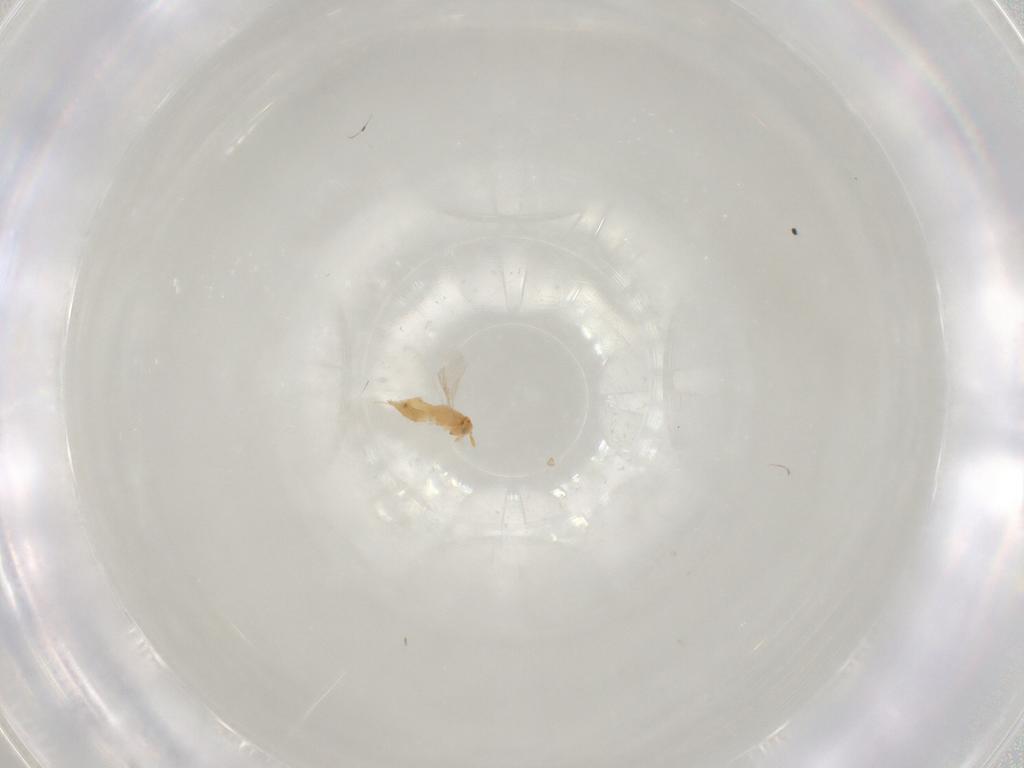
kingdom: Animalia
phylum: Arthropoda
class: Insecta
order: Hymenoptera
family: Aphelinidae
